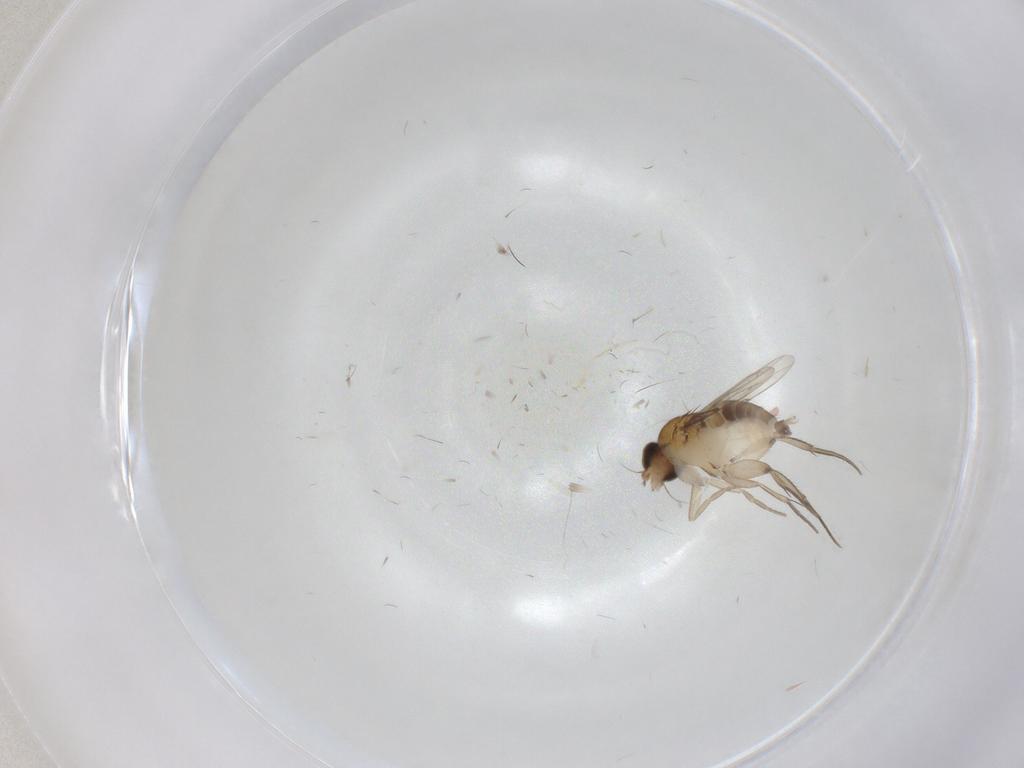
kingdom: Animalia
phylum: Arthropoda
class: Insecta
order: Diptera
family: Phoridae
